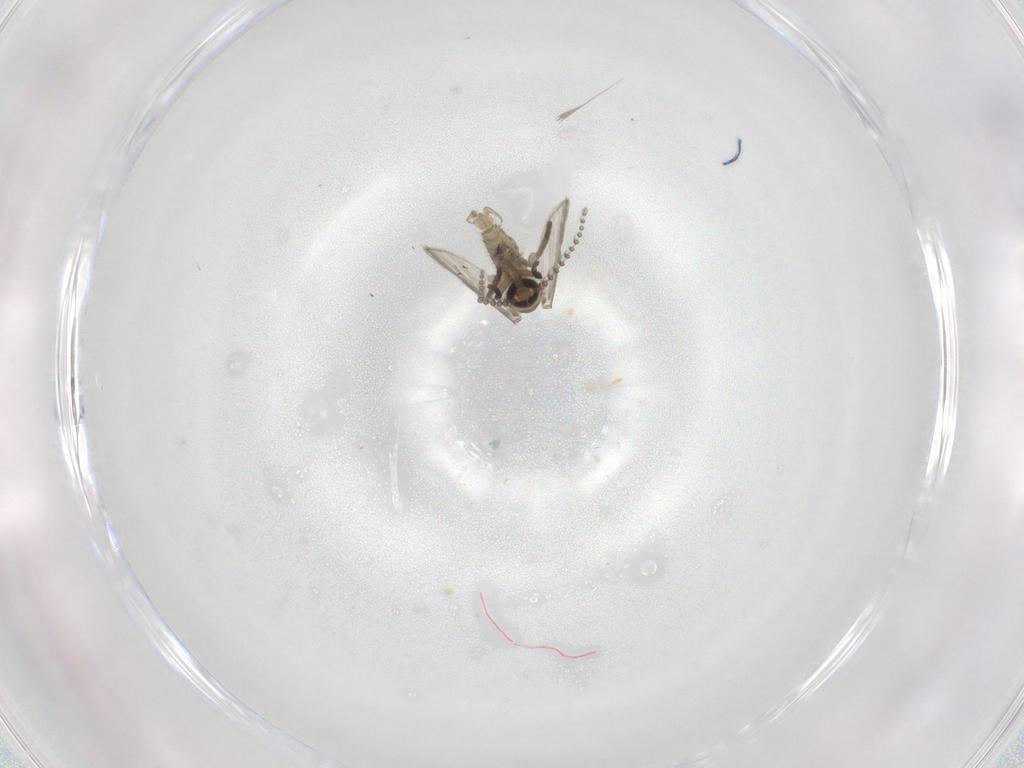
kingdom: Animalia
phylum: Arthropoda
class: Insecta
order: Diptera
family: Psychodidae
